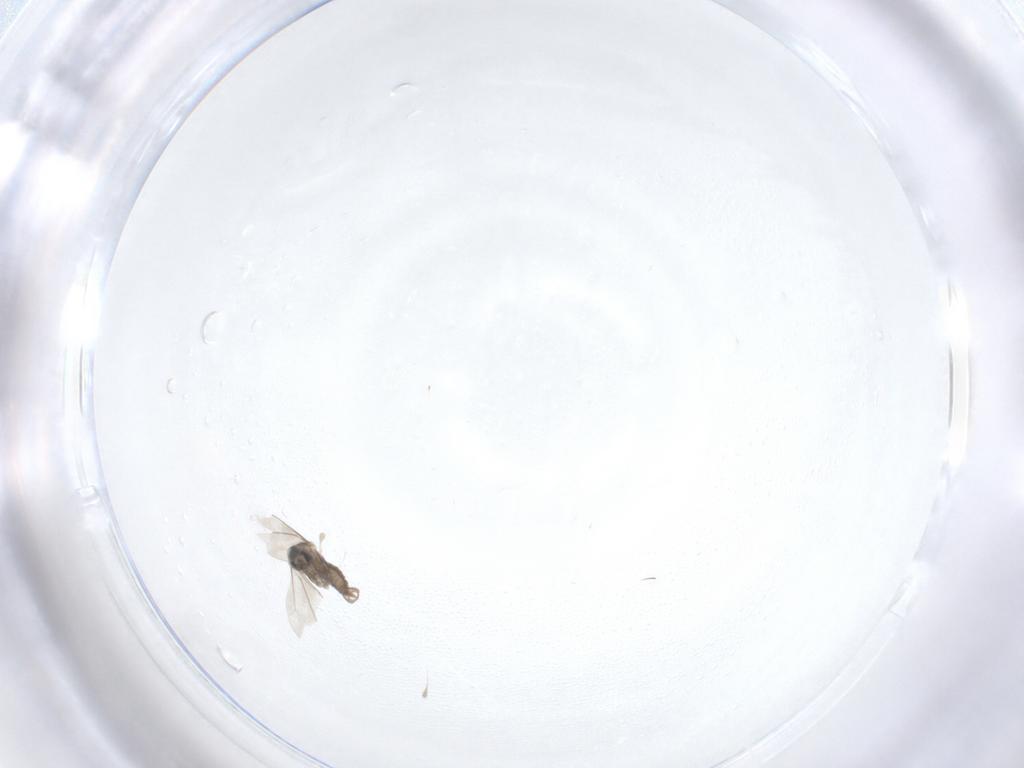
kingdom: Animalia
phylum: Arthropoda
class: Insecta
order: Diptera
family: Cecidomyiidae
